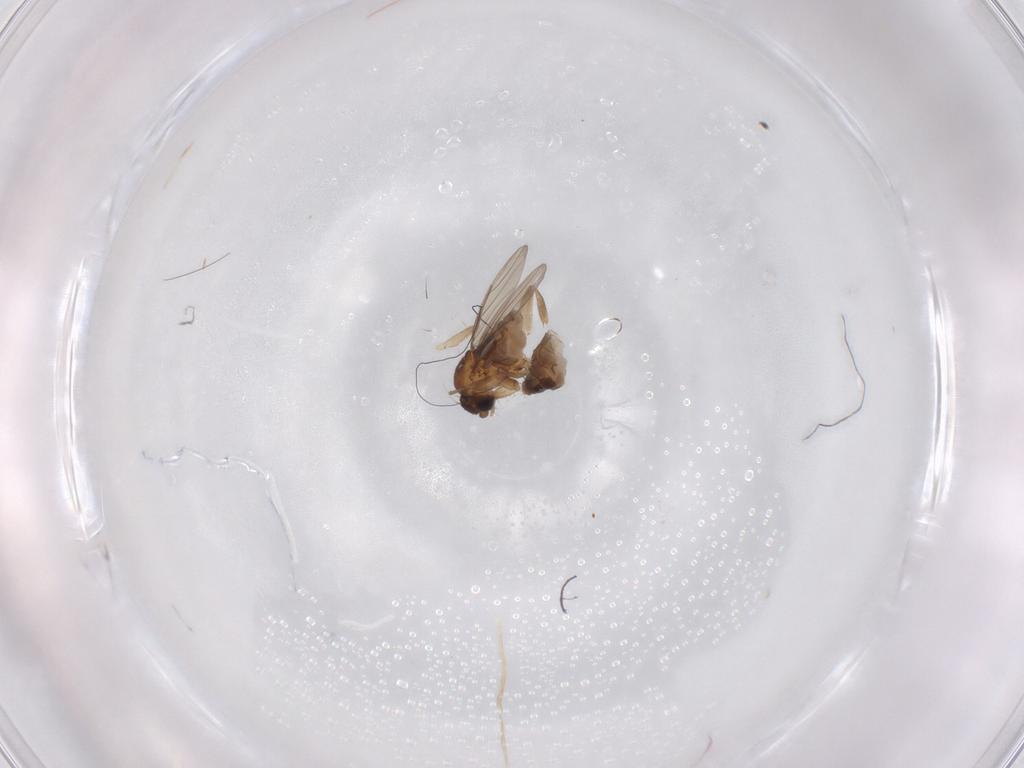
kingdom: Animalia
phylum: Arthropoda
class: Insecta
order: Diptera
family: Phoridae
